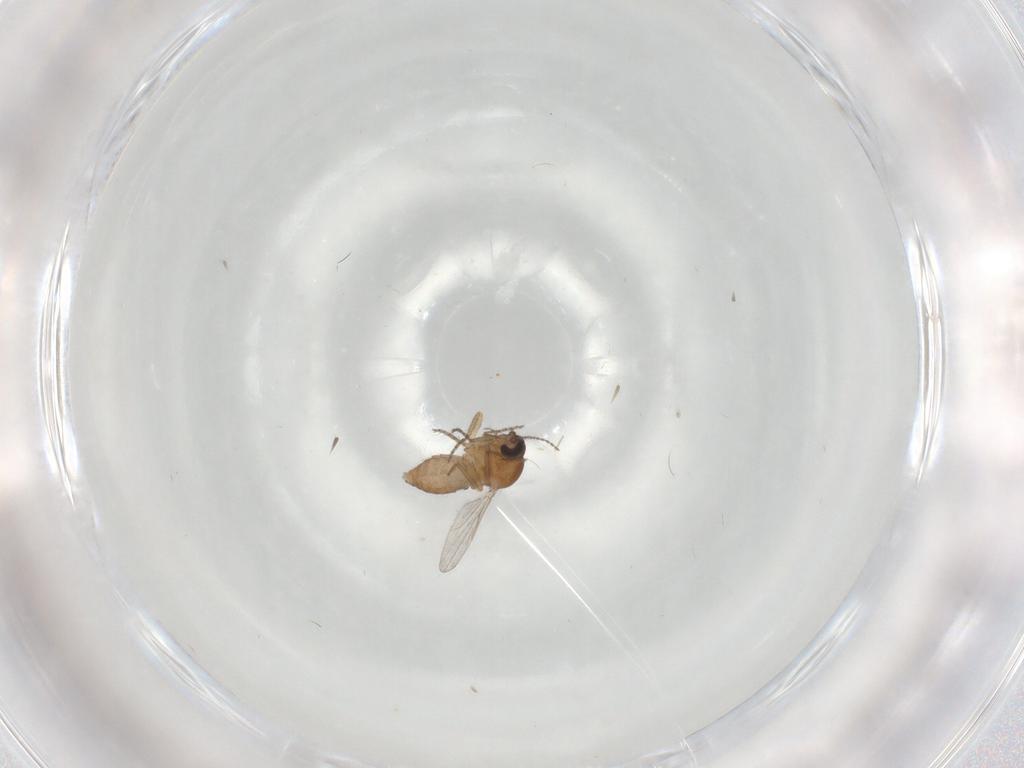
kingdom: Animalia
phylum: Arthropoda
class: Insecta
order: Diptera
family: Ceratopogonidae
